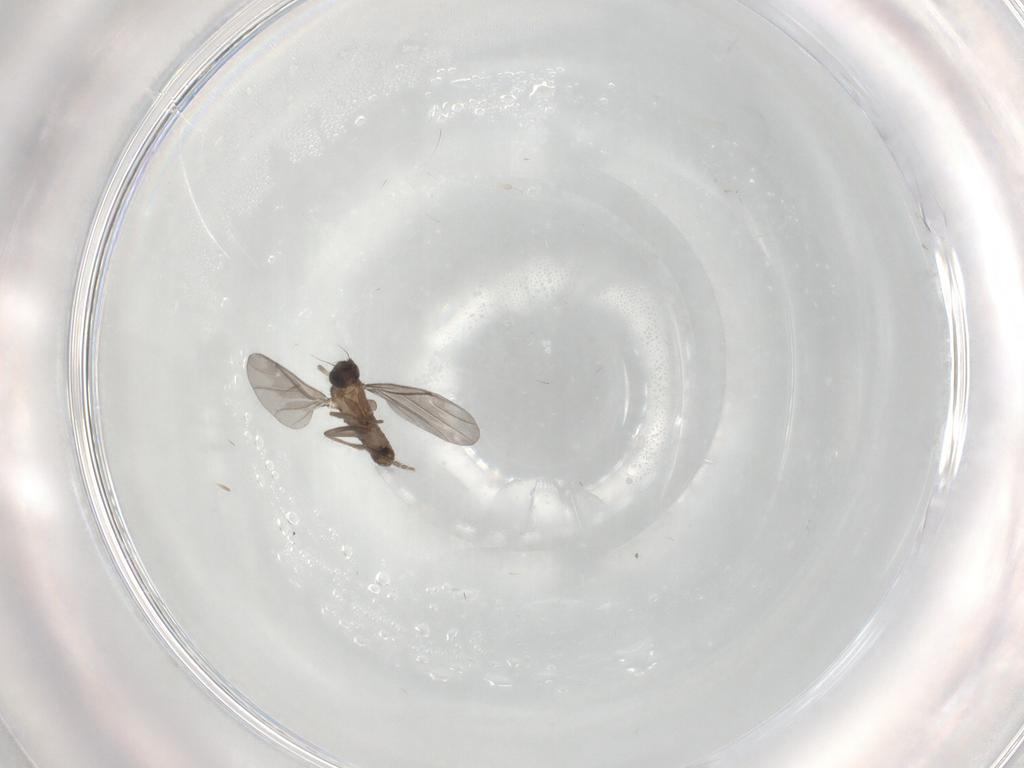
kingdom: Animalia
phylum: Arthropoda
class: Insecta
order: Diptera
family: Phoridae
